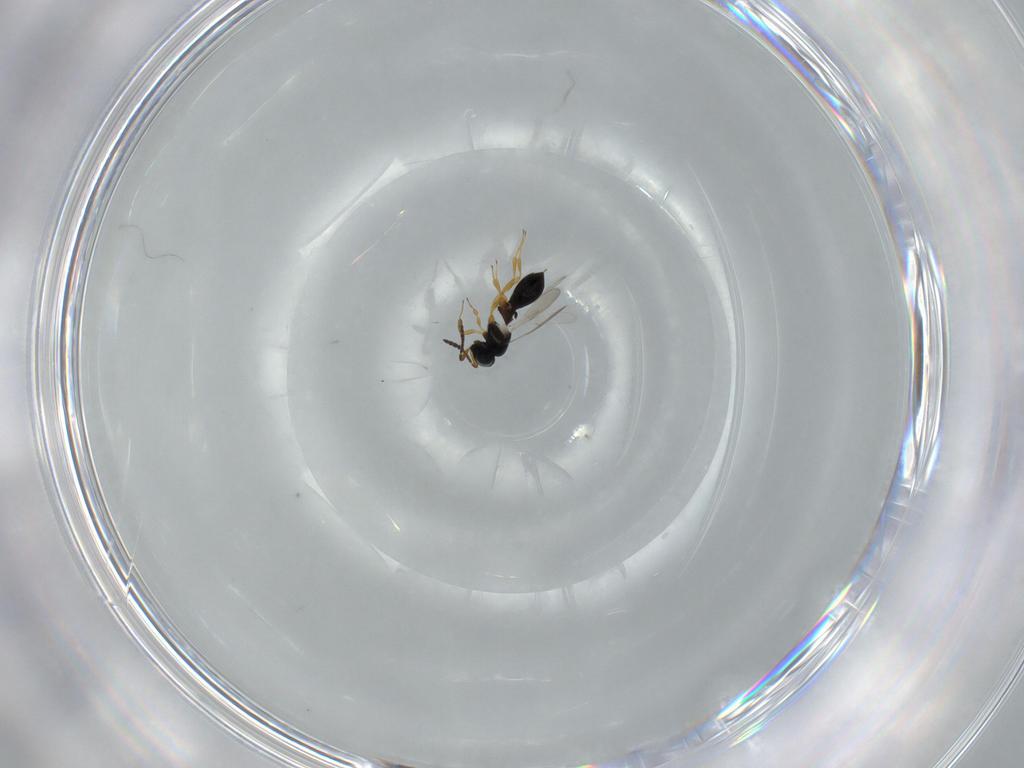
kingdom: Animalia
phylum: Arthropoda
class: Insecta
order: Hymenoptera
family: Scelionidae
